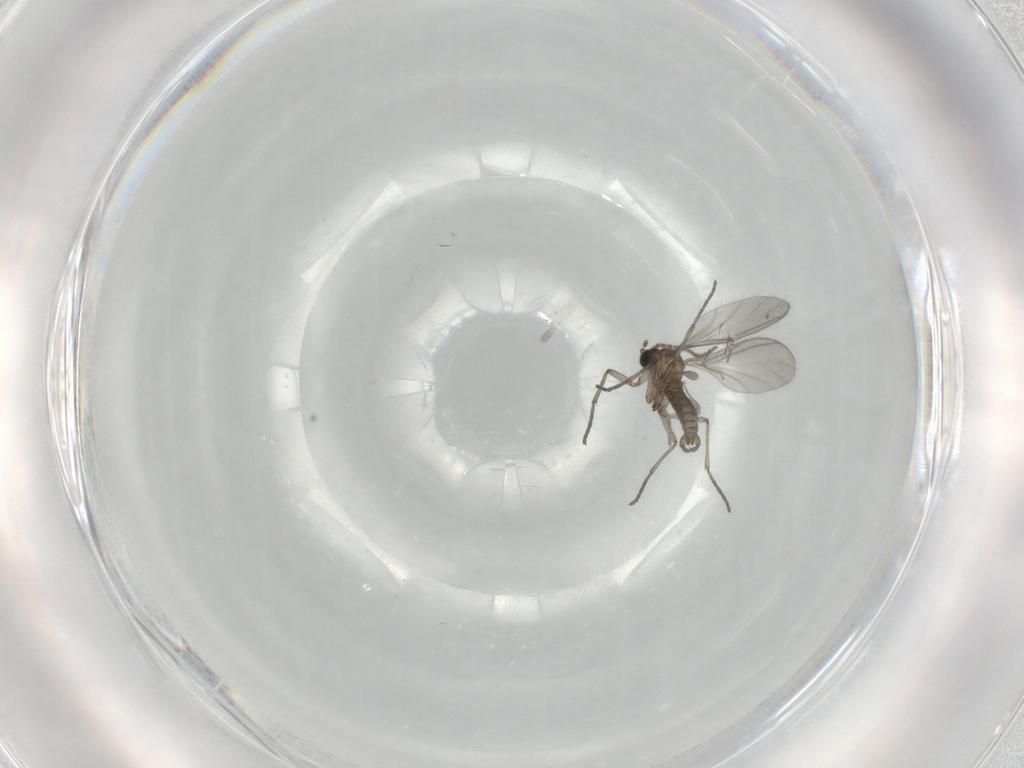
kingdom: Animalia
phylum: Arthropoda
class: Insecta
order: Diptera
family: Sciaridae
